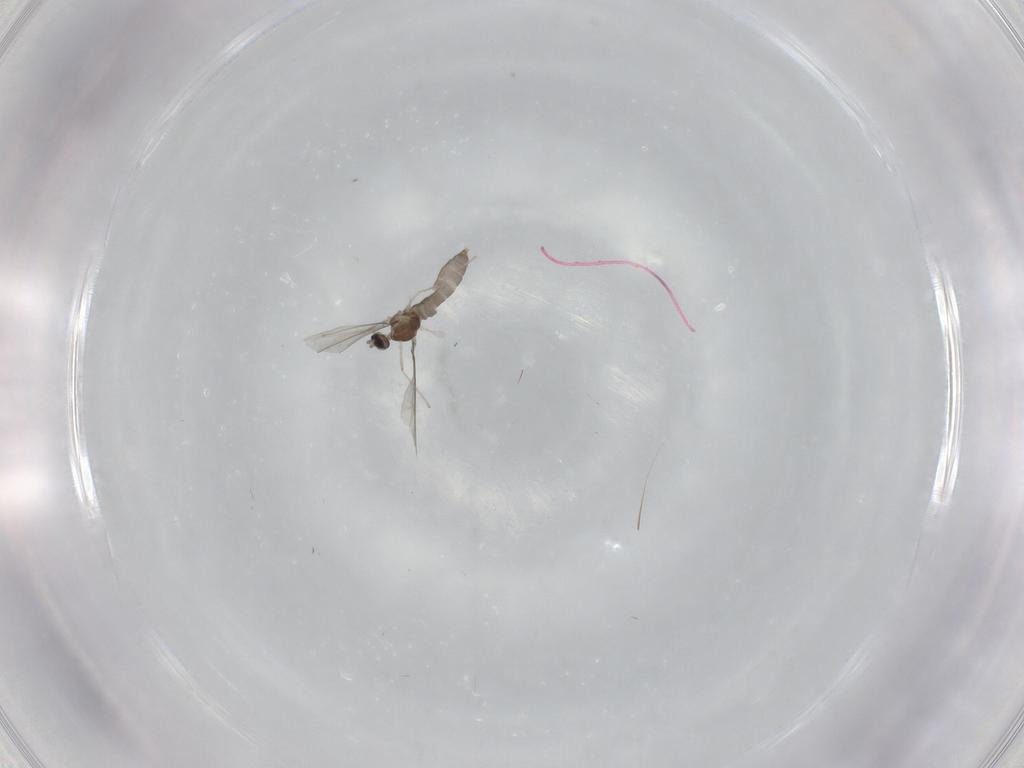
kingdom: Animalia
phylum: Arthropoda
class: Insecta
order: Diptera
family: Cecidomyiidae
